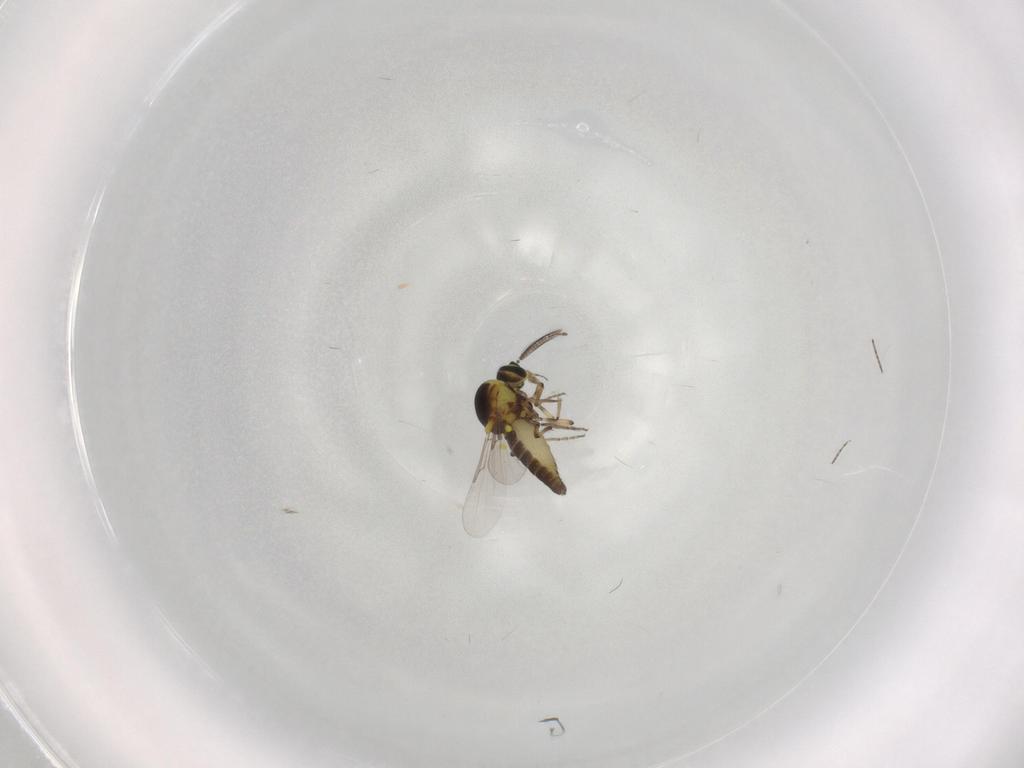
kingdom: Animalia
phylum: Arthropoda
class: Insecta
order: Diptera
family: Ceratopogonidae
